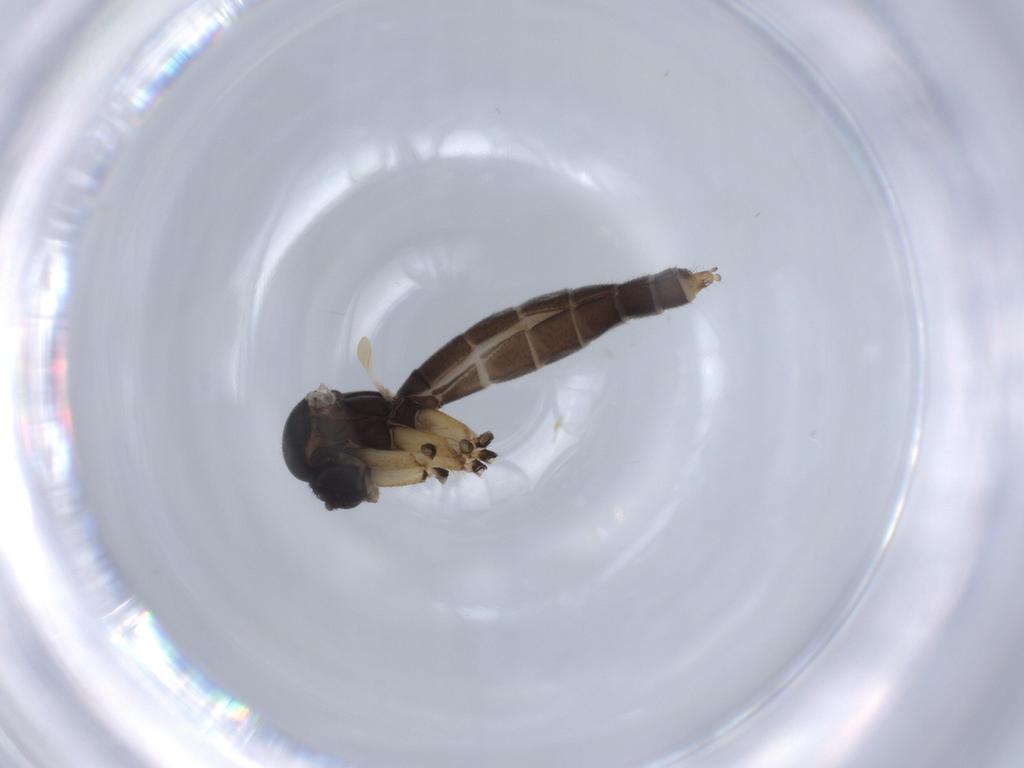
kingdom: Animalia
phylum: Arthropoda
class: Insecta
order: Diptera
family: Mycetophilidae
